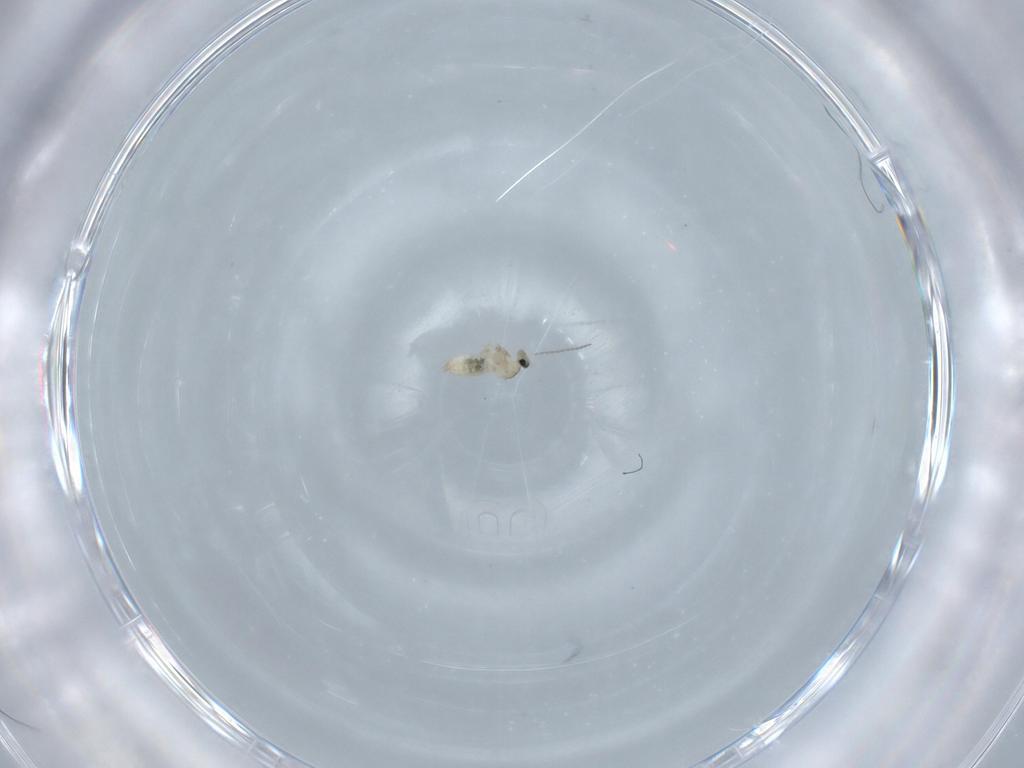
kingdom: Animalia
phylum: Arthropoda
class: Insecta
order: Diptera
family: Cecidomyiidae
